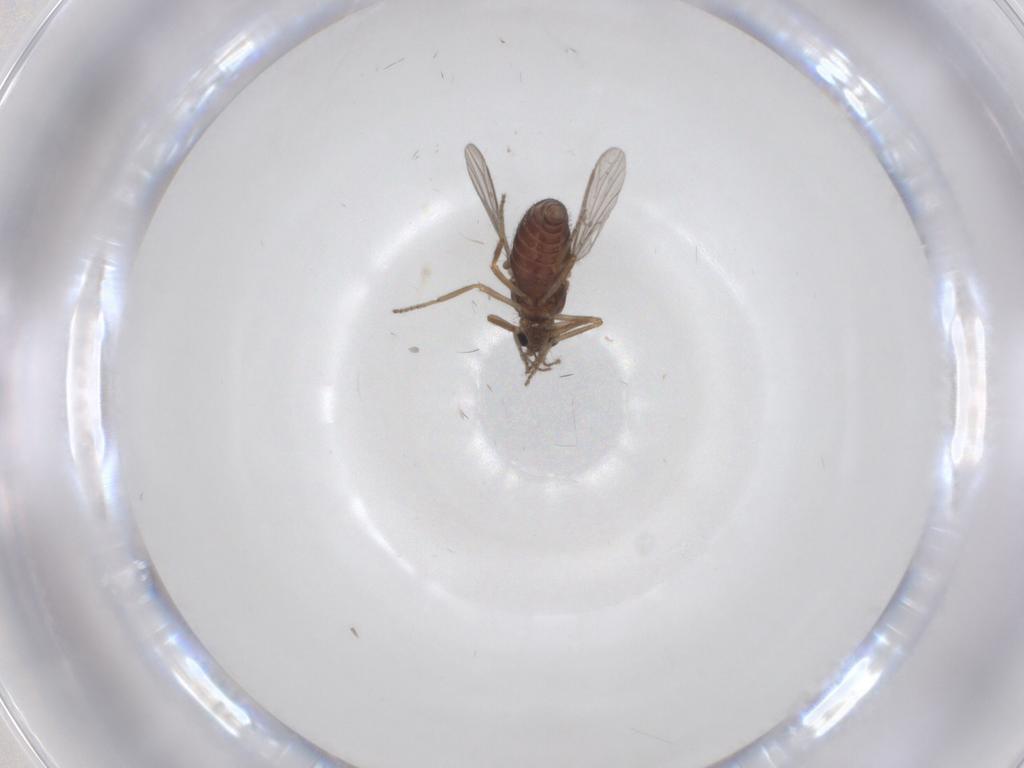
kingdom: Animalia
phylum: Arthropoda
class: Insecta
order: Diptera
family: Ceratopogonidae
